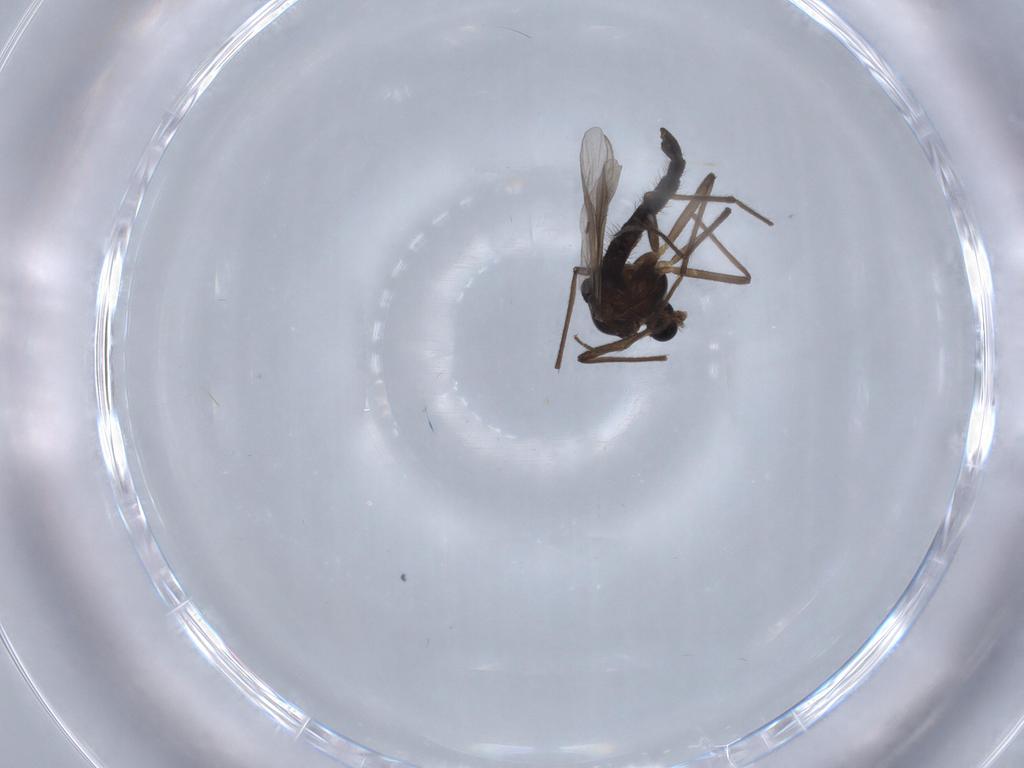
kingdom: Animalia
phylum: Arthropoda
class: Insecta
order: Diptera
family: Chironomidae
